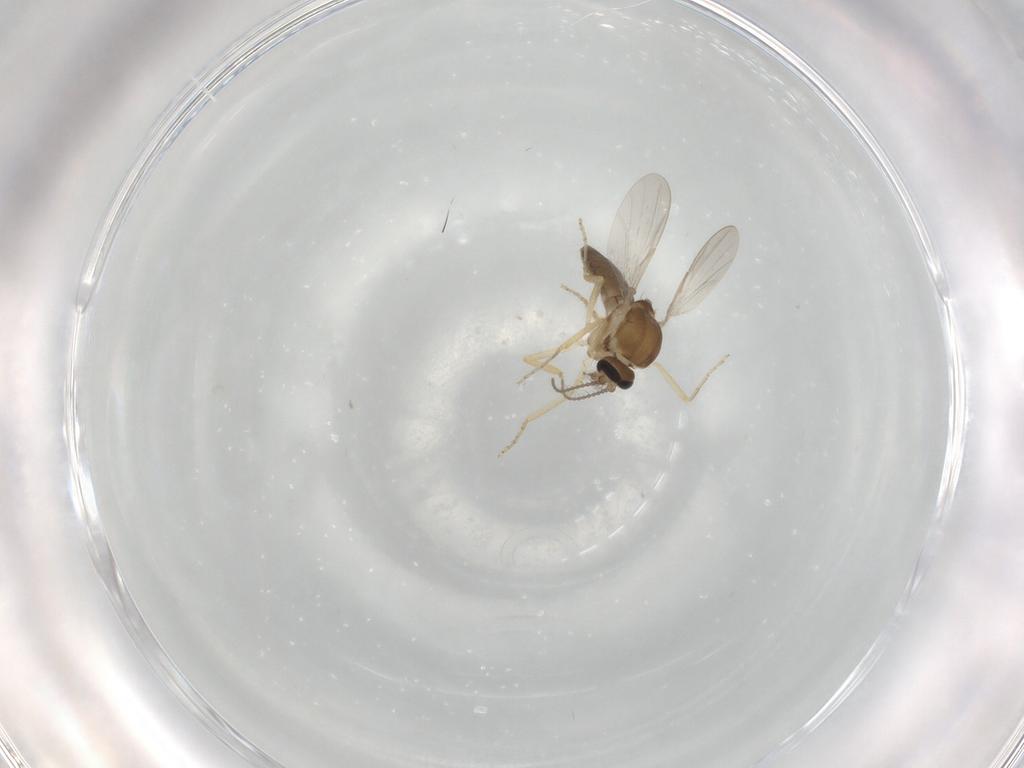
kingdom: Animalia
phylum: Arthropoda
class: Insecta
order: Diptera
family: Ceratopogonidae
